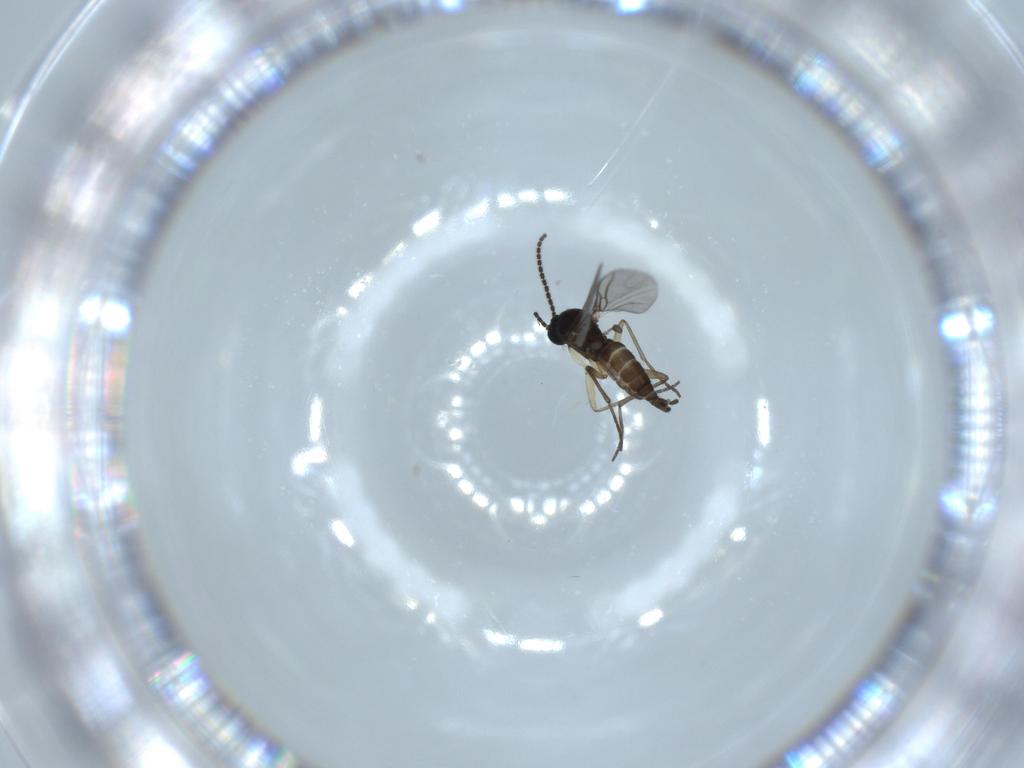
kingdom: Animalia
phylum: Arthropoda
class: Insecta
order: Diptera
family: Sciaridae
